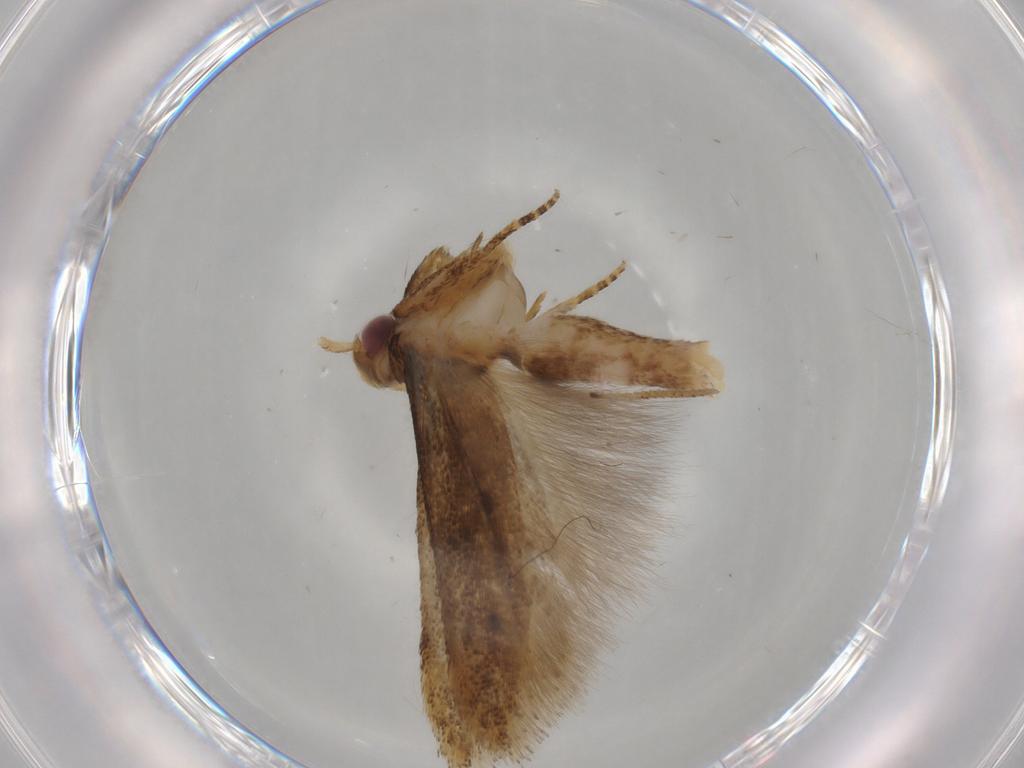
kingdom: Animalia
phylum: Arthropoda
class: Insecta
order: Lepidoptera
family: Gelechiidae
